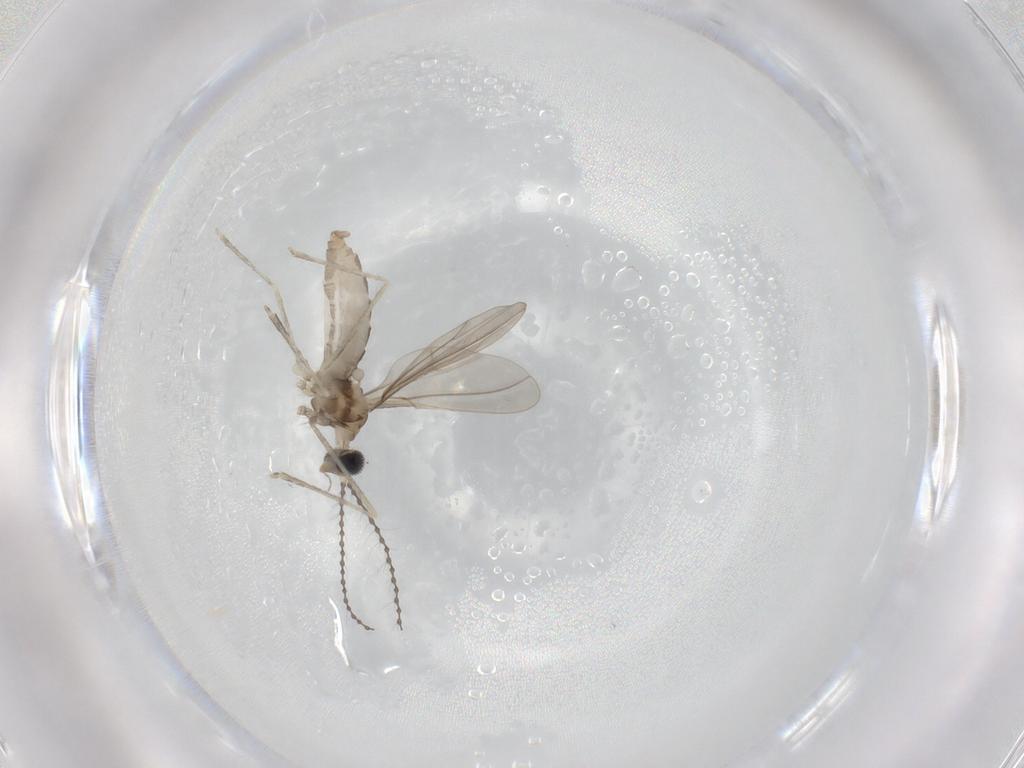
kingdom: Animalia
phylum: Arthropoda
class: Insecta
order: Diptera
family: Cecidomyiidae
